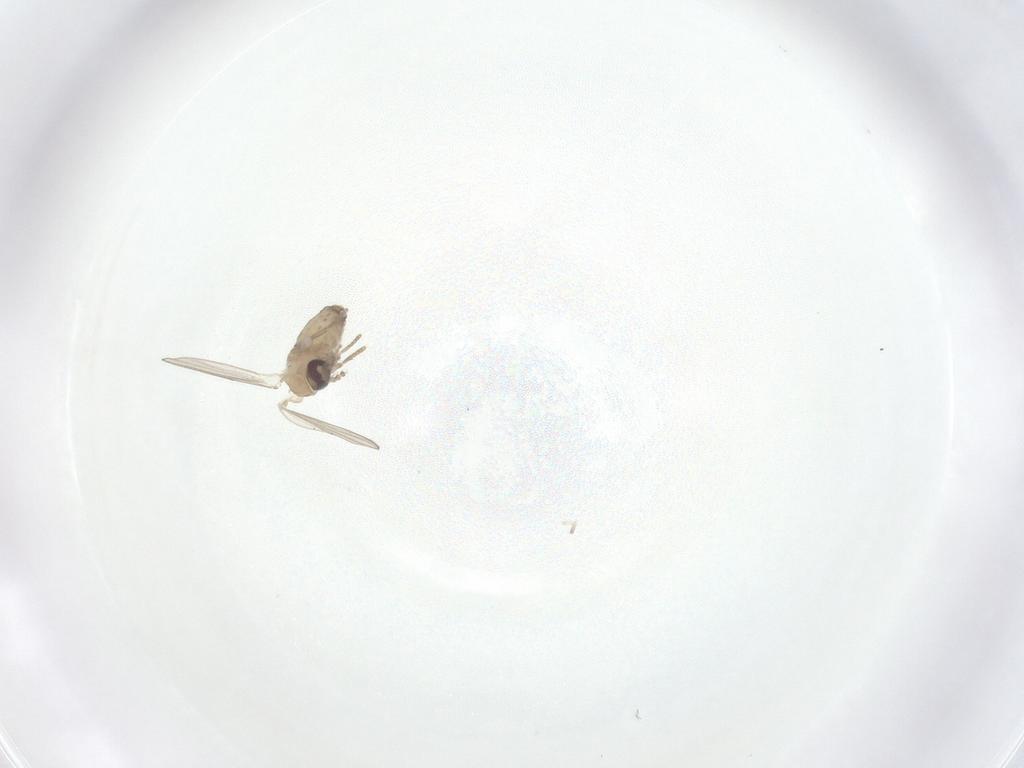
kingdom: Animalia
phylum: Arthropoda
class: Insecta
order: Diptera
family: Psychodidae
